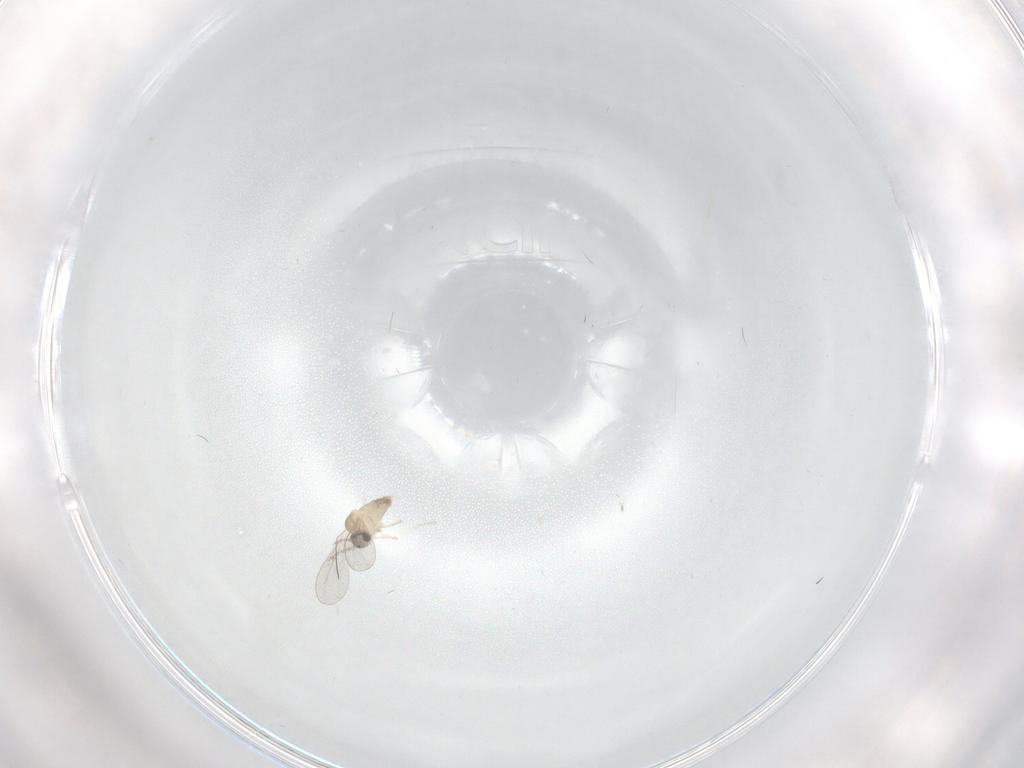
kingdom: Animalia
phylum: Arthropoda
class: Insecta
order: Diptera
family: Cecidomyiidae
